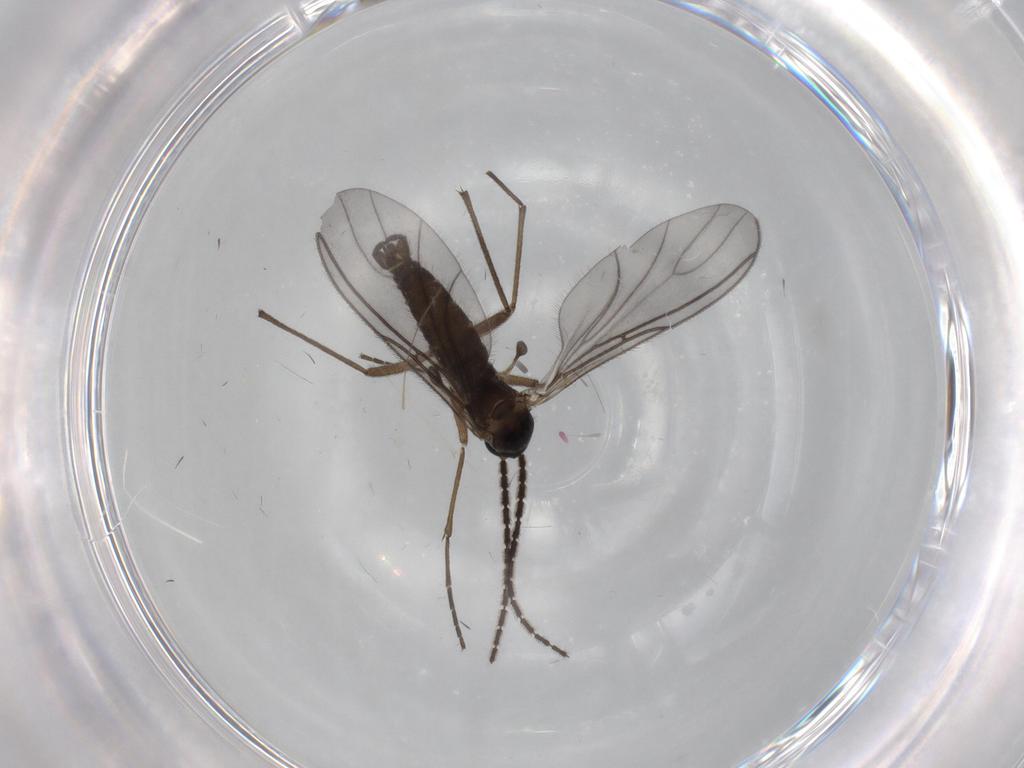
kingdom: Animalia
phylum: Arthropoda
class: Insecta
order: Diptera
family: Sciaridae
